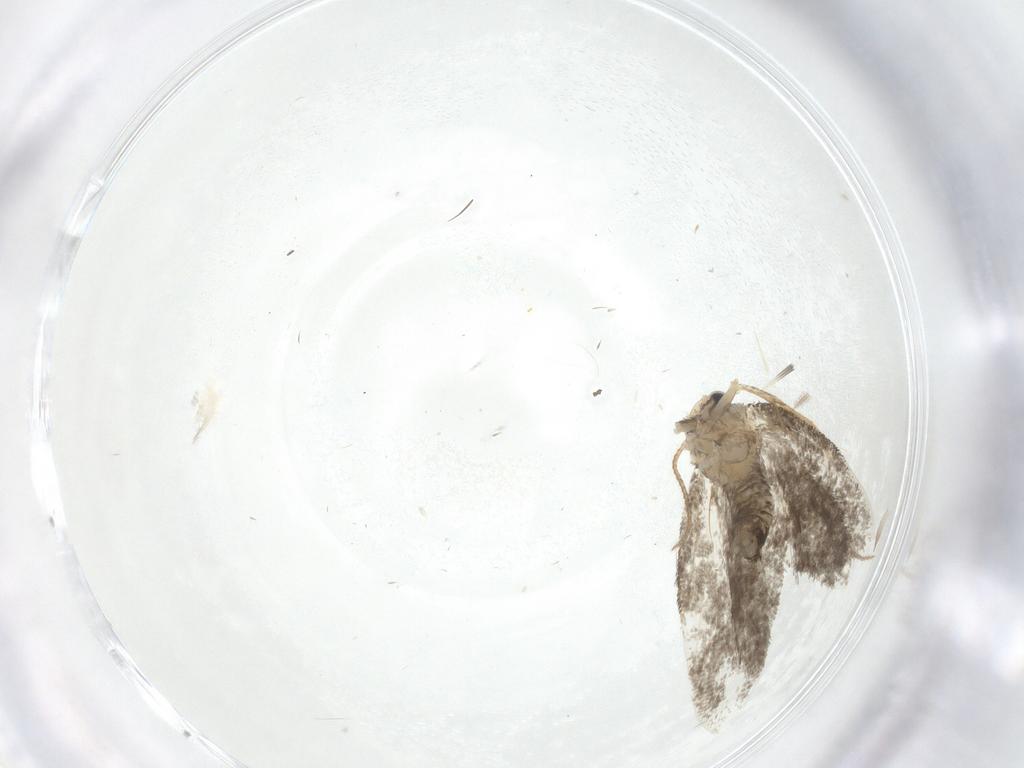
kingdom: Animalia
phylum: Arthropoda
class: Insecta
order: Lepidoptera
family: Psychidae
